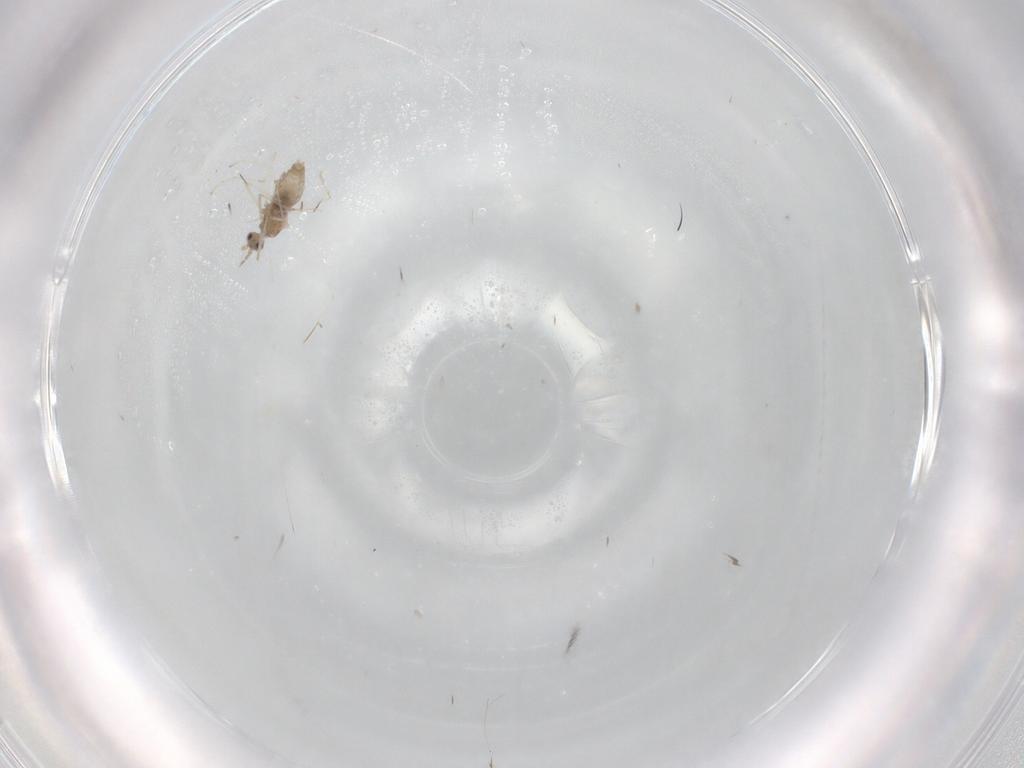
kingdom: Animalia
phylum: Arthropoda
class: Insecta
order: Diptera
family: Cecidomyiidae
